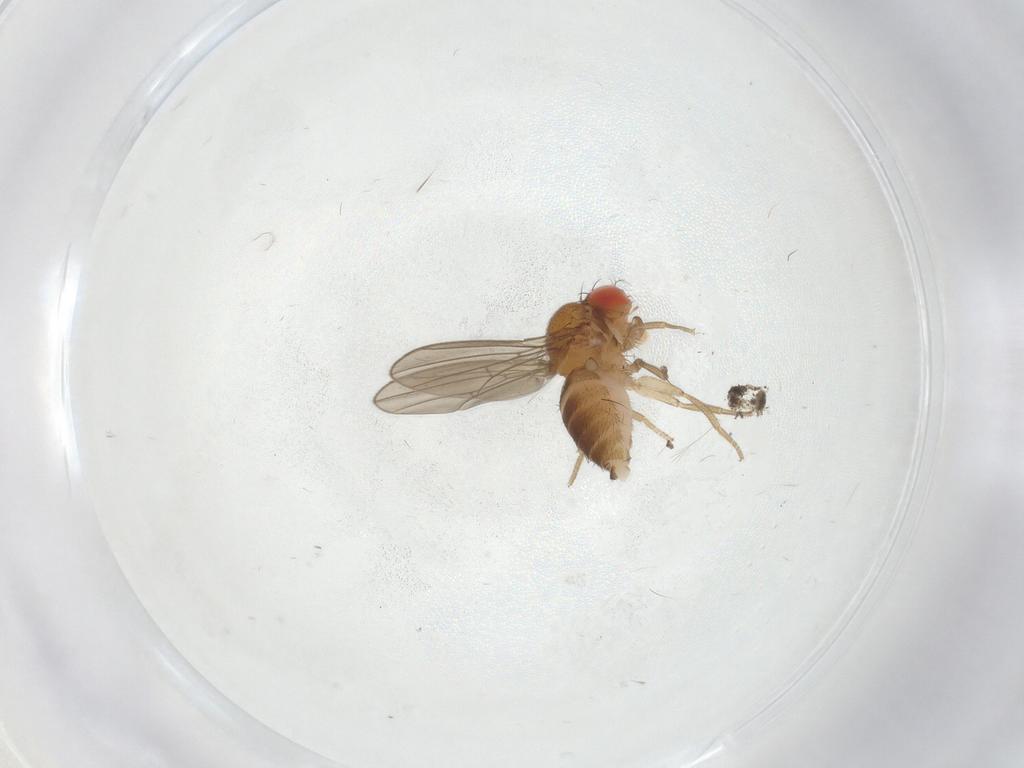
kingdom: Animalia
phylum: Arthropoda
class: Insecta
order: Diptera
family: Drosophilidae
